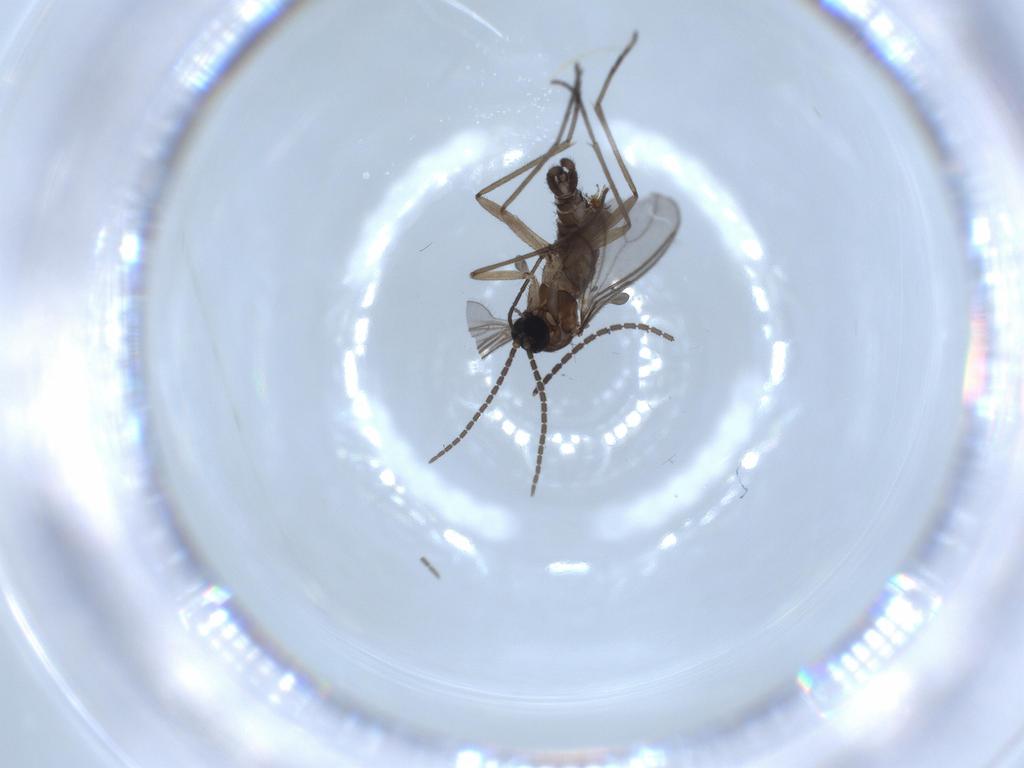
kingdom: Animalia
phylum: Arthropoda
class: Insecta
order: Diptera
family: Sciaridae
